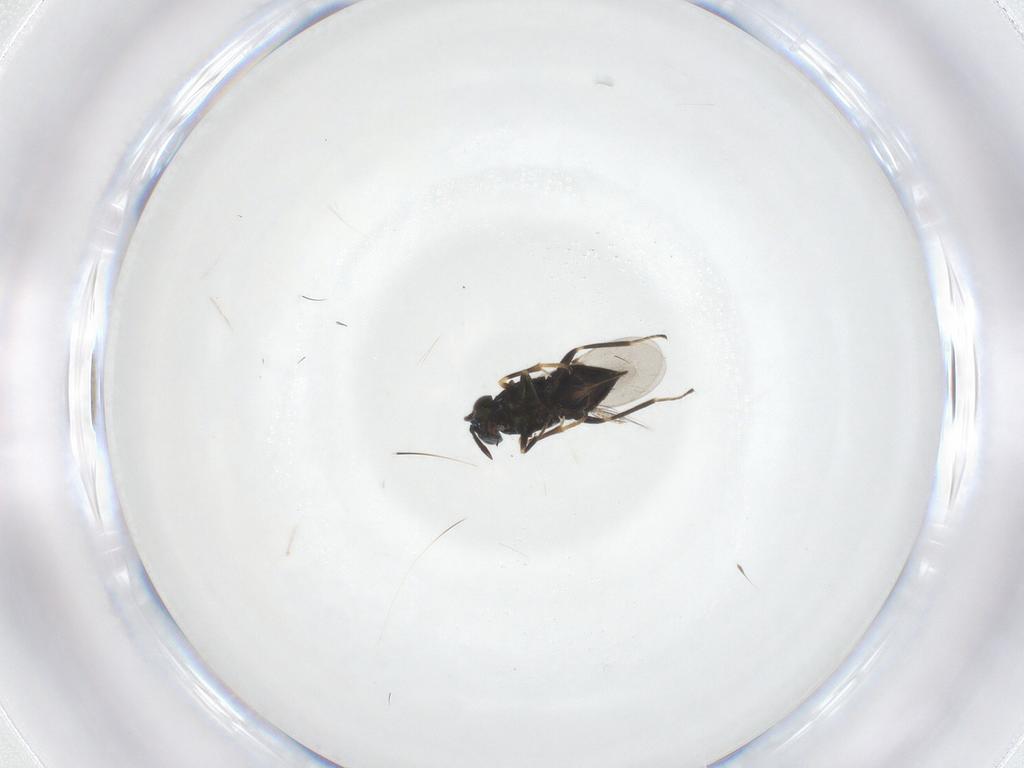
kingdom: Animalia
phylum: Arthropoda
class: Insecta
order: Hymenoptera
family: Encyrtidae
